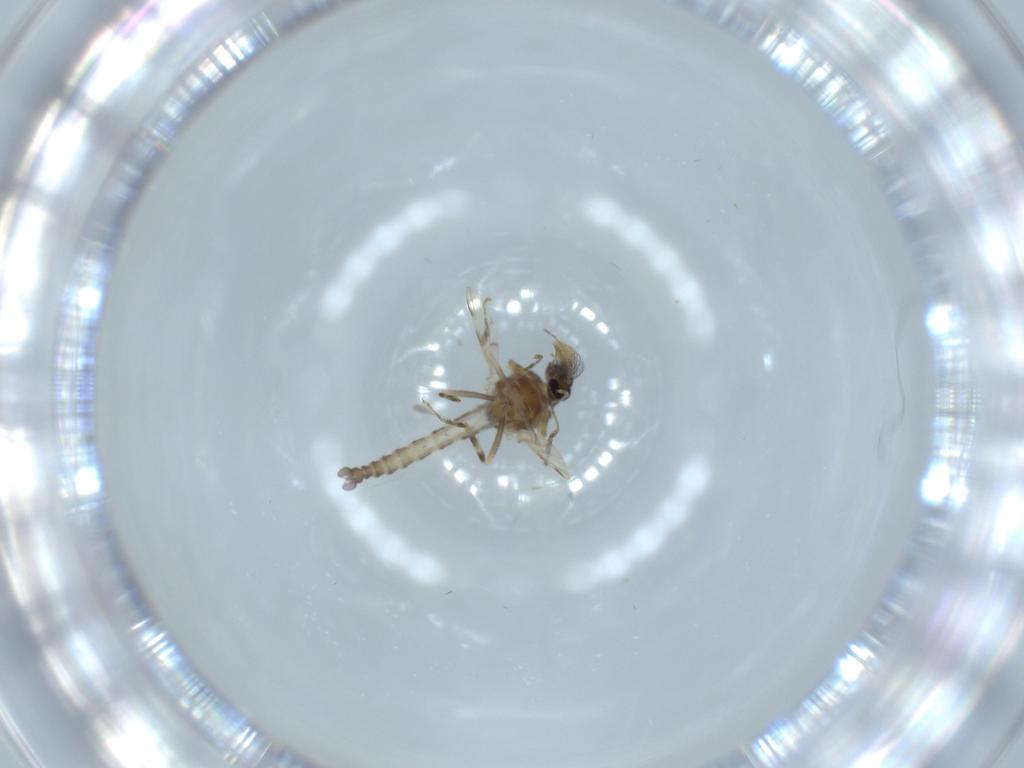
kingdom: Animalia
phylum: Arthropoda
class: Insecta
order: Diptera
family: Ceratopogonidae
